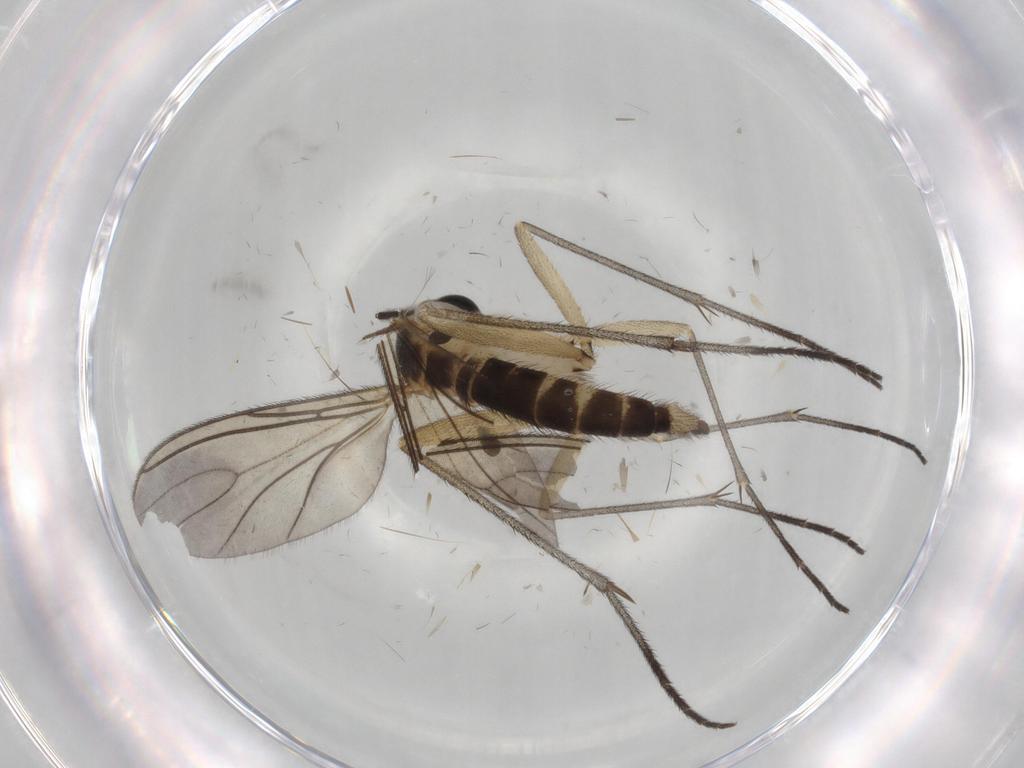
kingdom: Animalia
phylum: Arthropoda
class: Insecta
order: Diptera
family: Sciaridae
